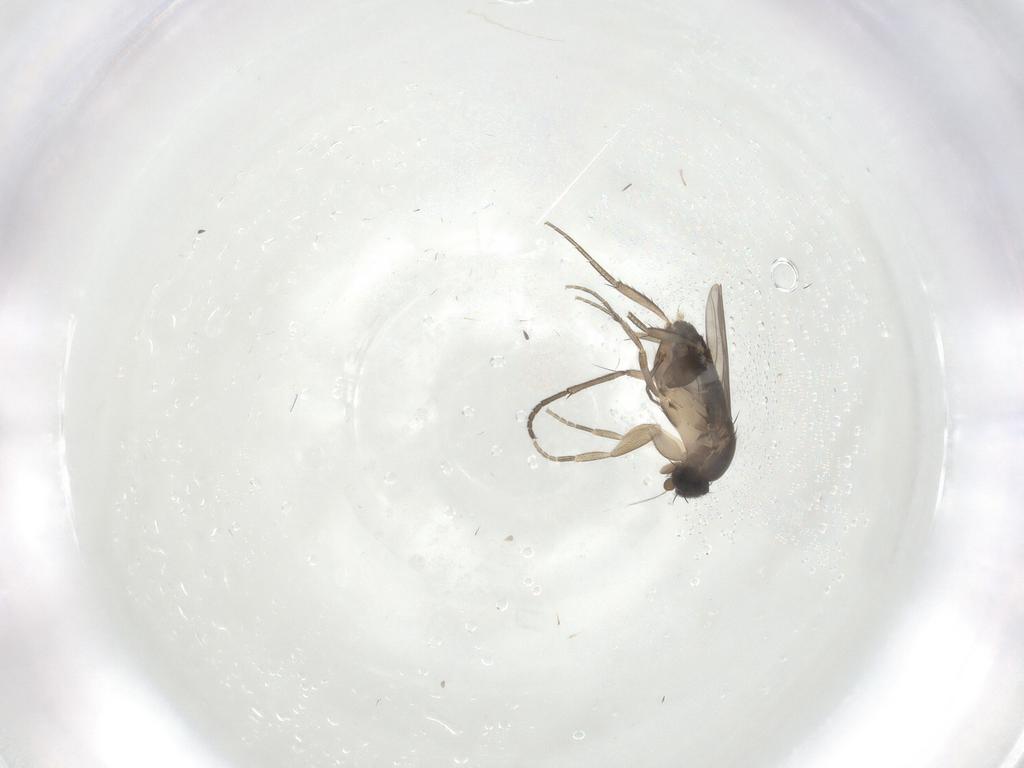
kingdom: Animalia
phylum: Arthropoda
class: Insecta
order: Diptera
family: Phoridae
